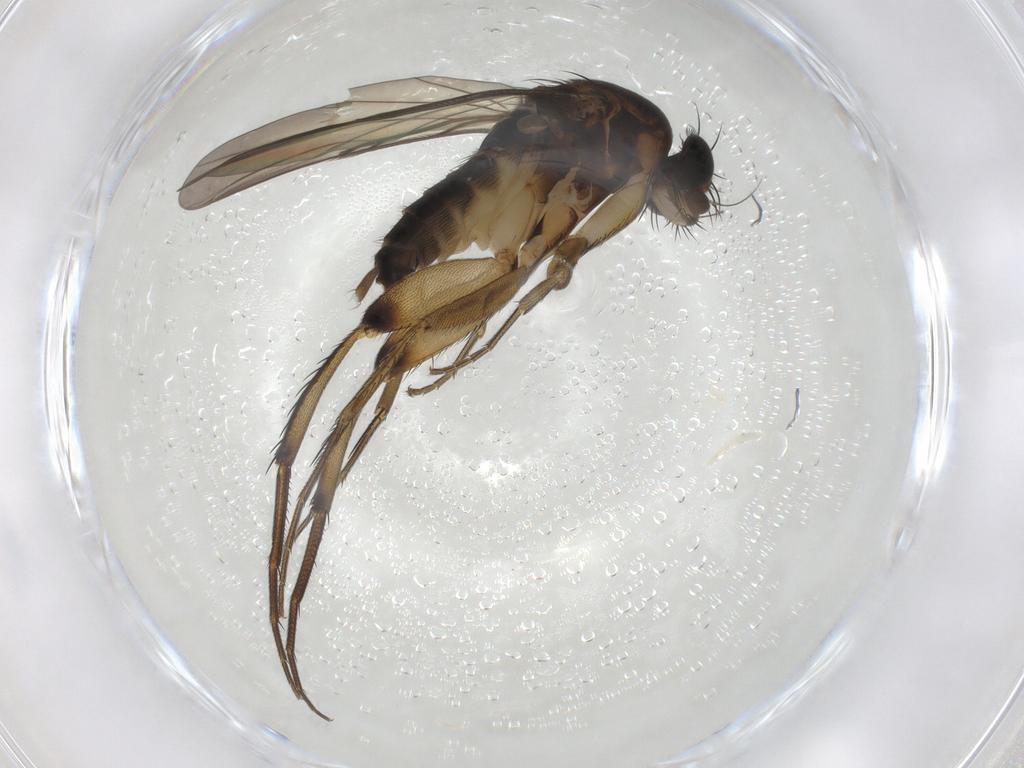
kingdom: Animalia
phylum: Arthropoda
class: Insecta
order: Diptera
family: Phoridae
